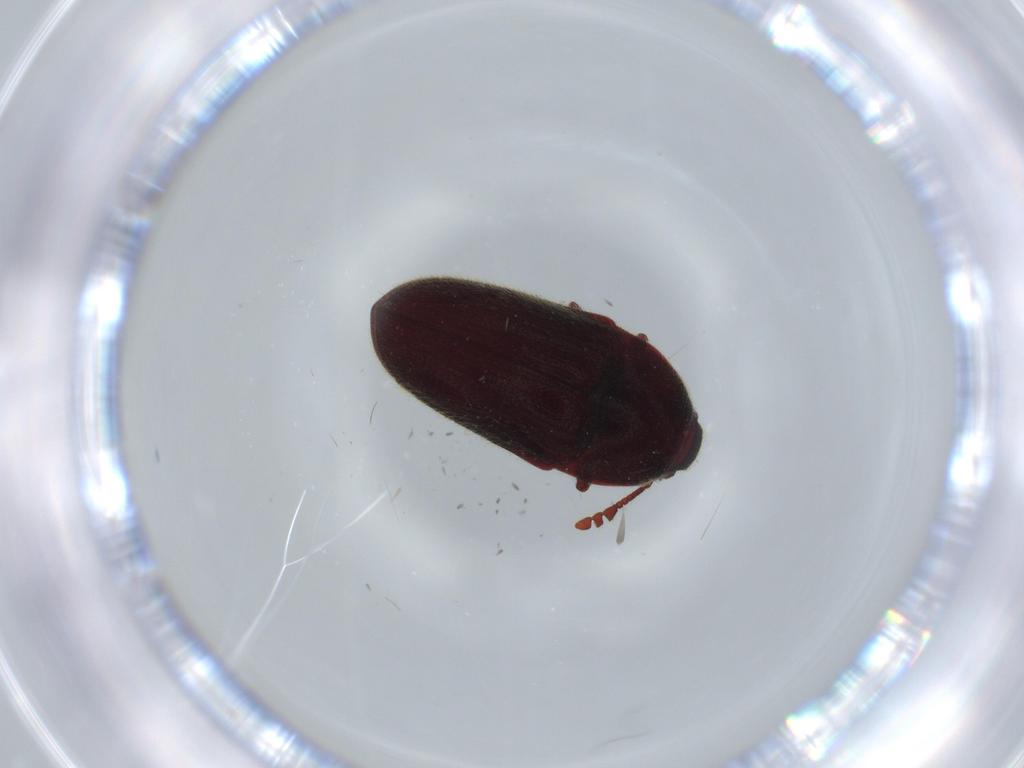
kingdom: Animalia
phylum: Arthropoda
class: Insecta
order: Coleoptera
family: Throscidae
